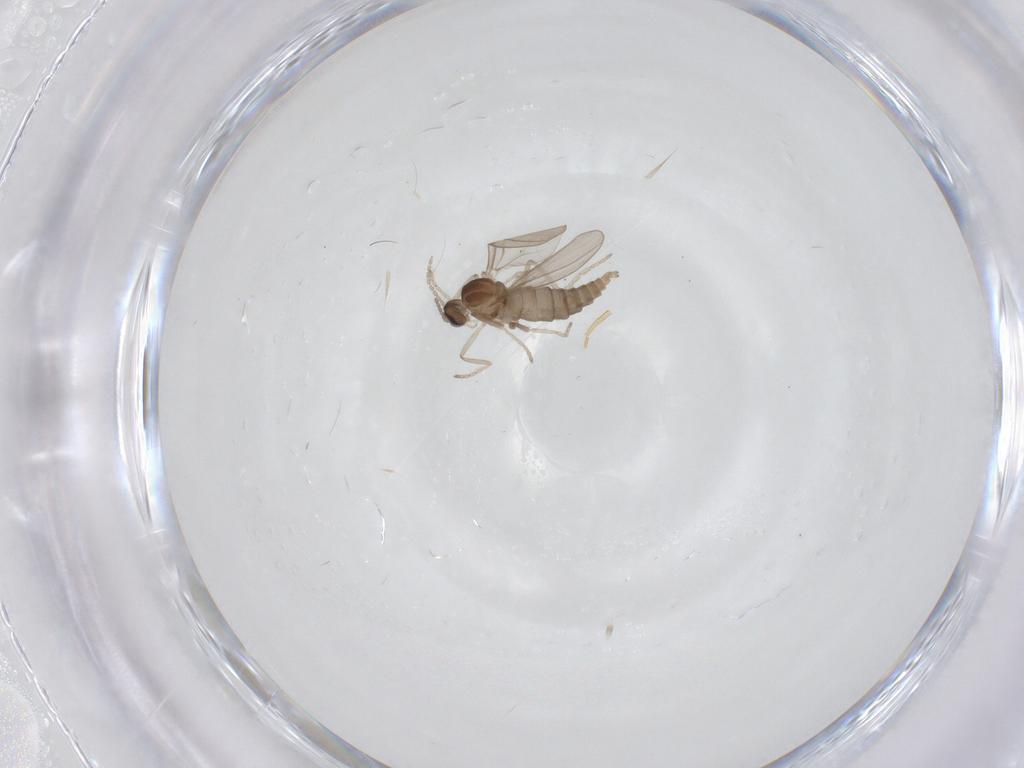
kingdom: Animalia
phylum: Arthropoda
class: Insecta
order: Diptera
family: Cecidomyiidae
